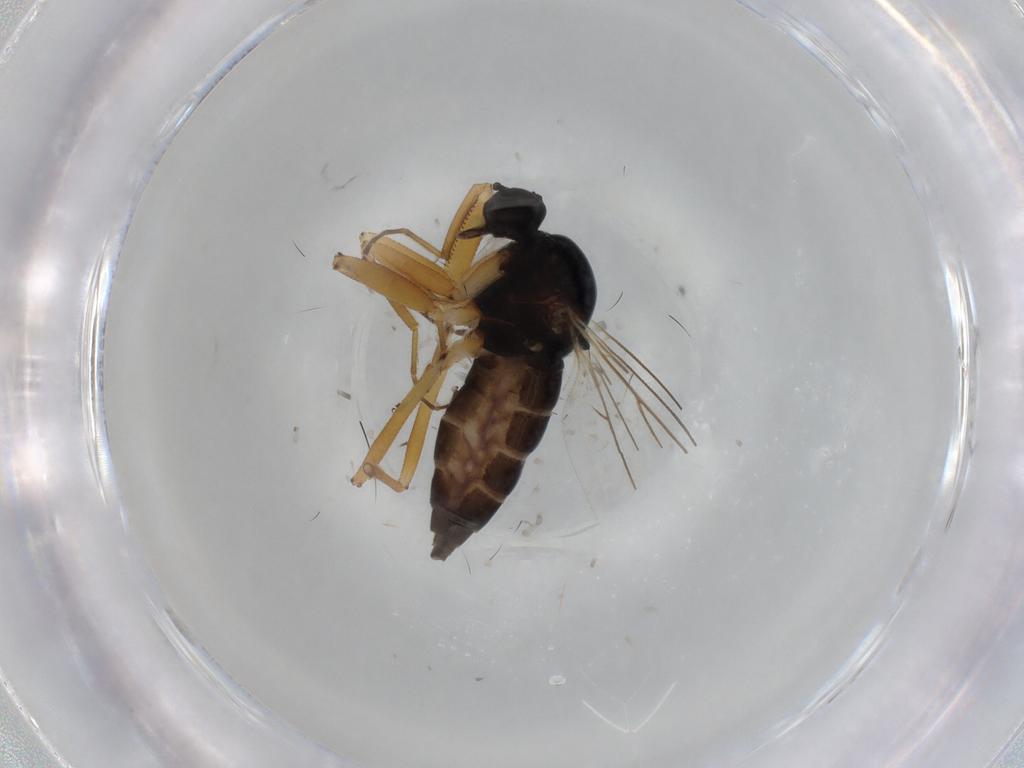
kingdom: Animalia
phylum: Arthropoda
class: Insecta
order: Diptera
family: Hybotidae
